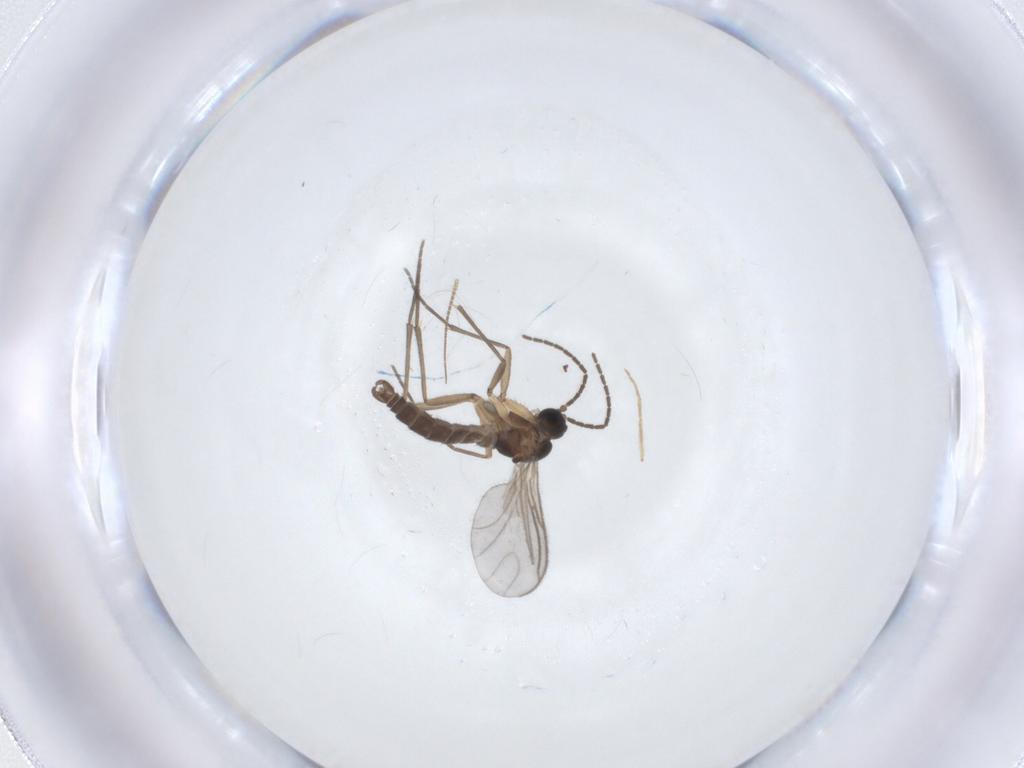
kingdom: Animalia
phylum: Arthropoda
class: Insecta
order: Diptera
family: Sciaridae
